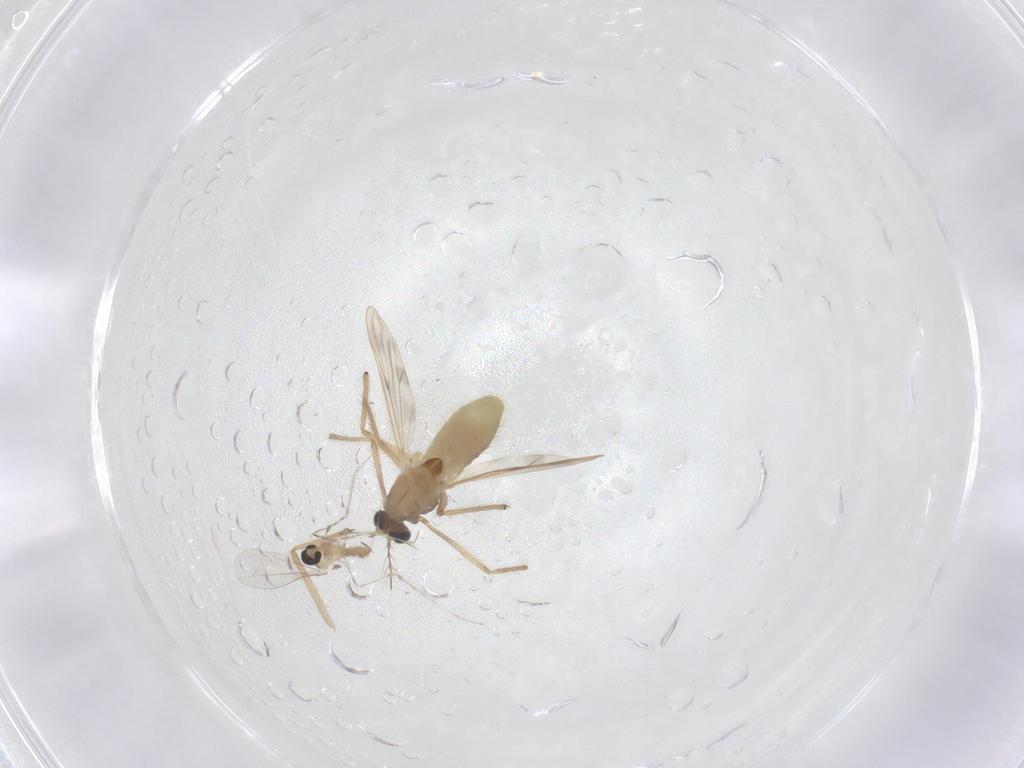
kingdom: Animalia
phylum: Arthropoda
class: Insecta
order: Diptera
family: Chironomidae
